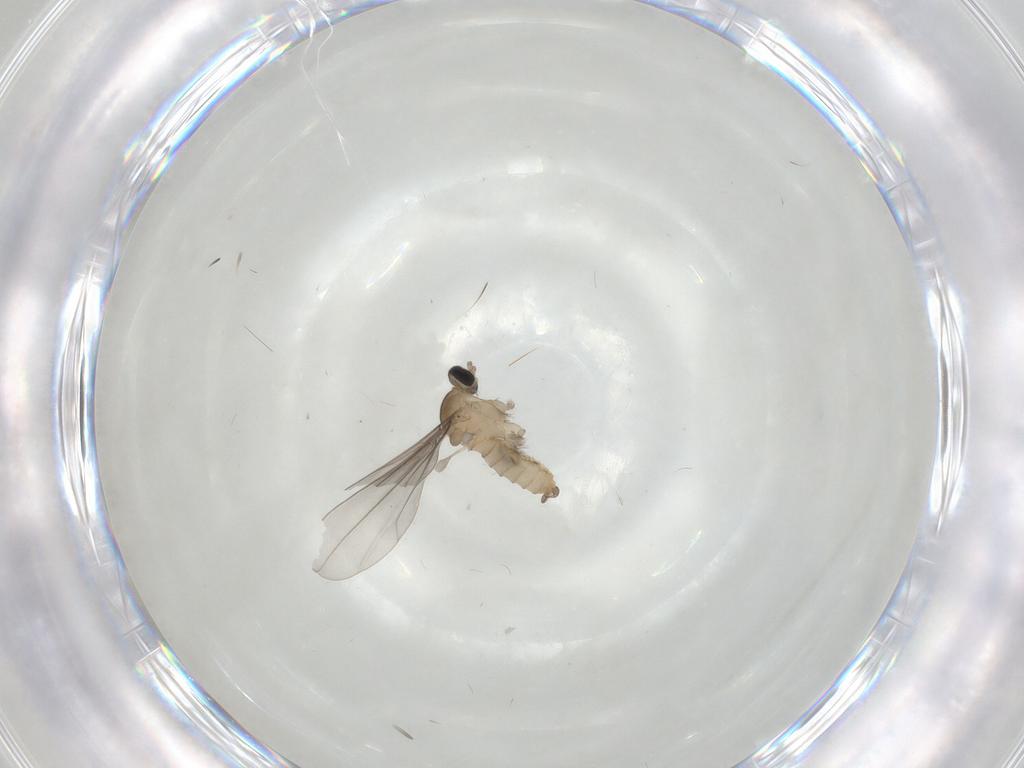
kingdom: Animalia
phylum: Arthropoda
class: Insecta
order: Diptera
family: Cecidomyiidae
